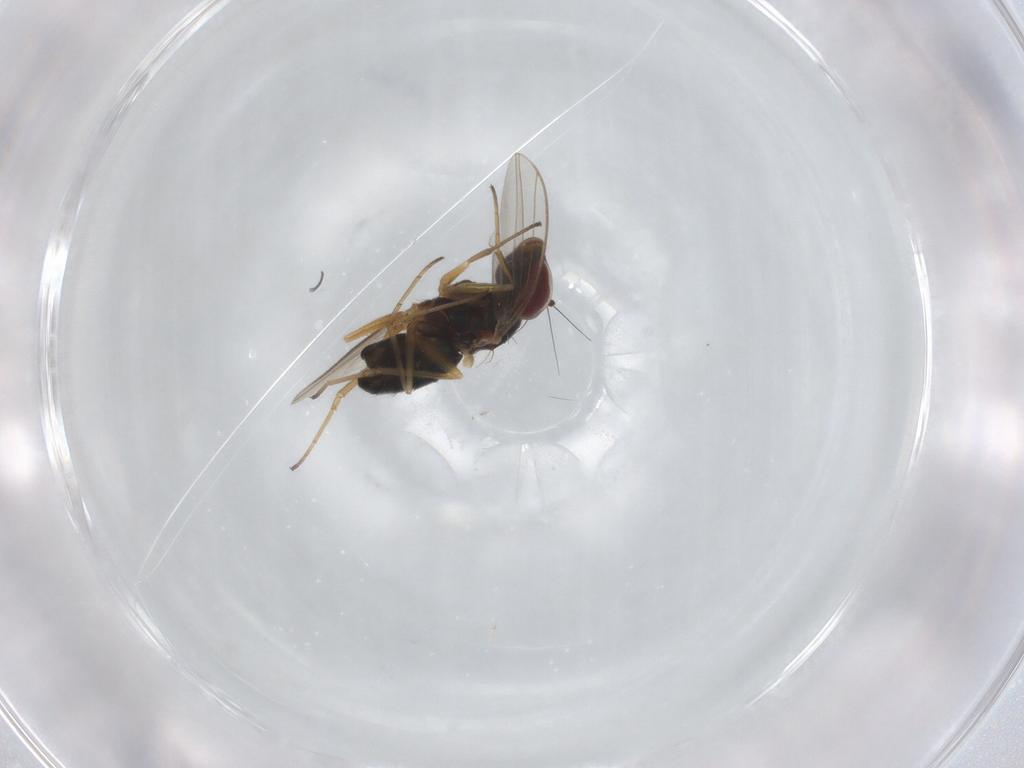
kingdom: Animalia
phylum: Arthropoda
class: Insecta
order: Diptera
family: Dolichopodidae
